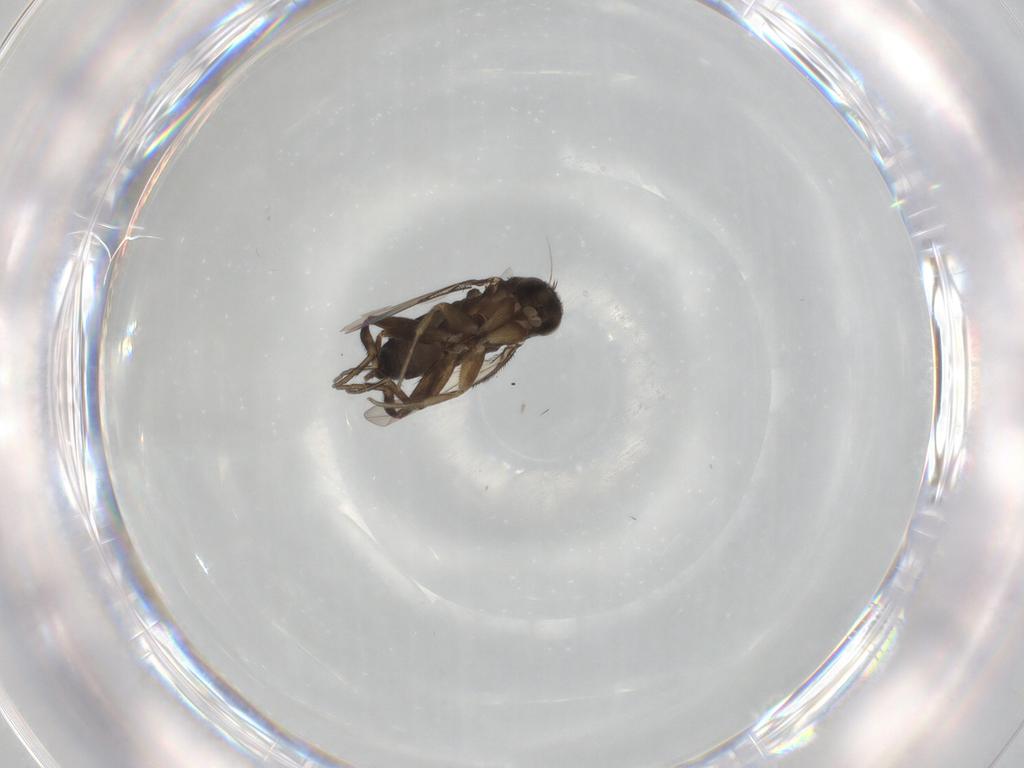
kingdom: Animalia
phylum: Arthropoda
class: Insecta
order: Diptera
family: Phoridae
